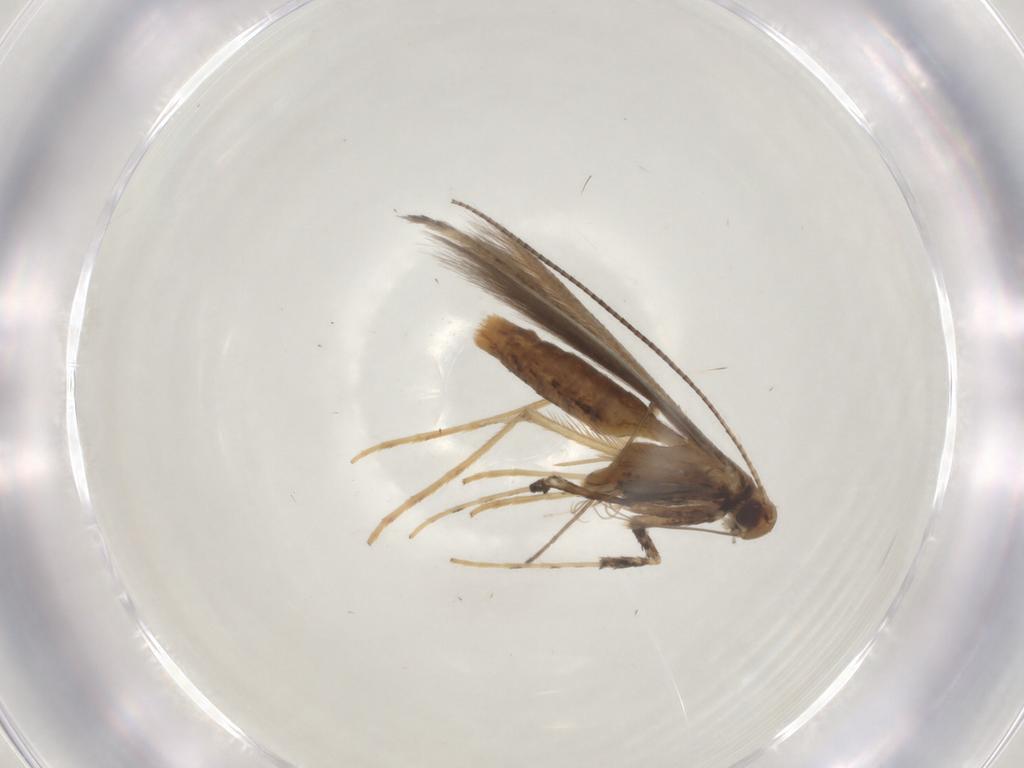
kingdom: Animalia
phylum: Arthropoda
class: Insecta
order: Lepidoptera
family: Gracillariidae
